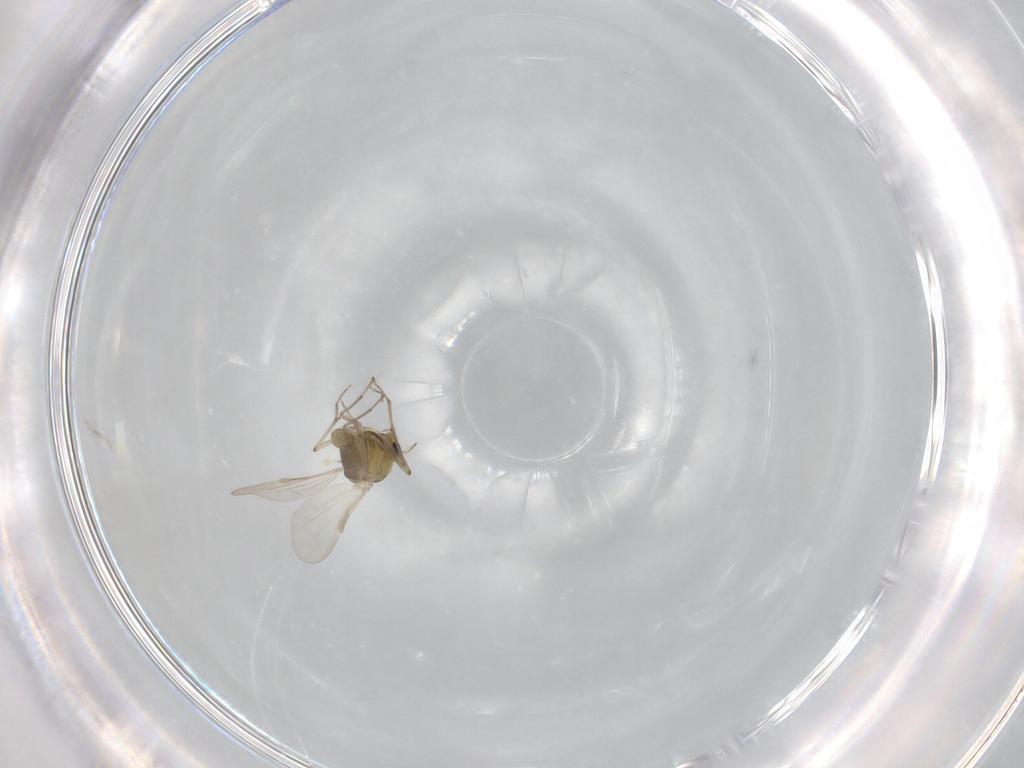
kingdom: Animalia
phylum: Arthropoda
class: Insecta
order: Diptera
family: Chironomidae
